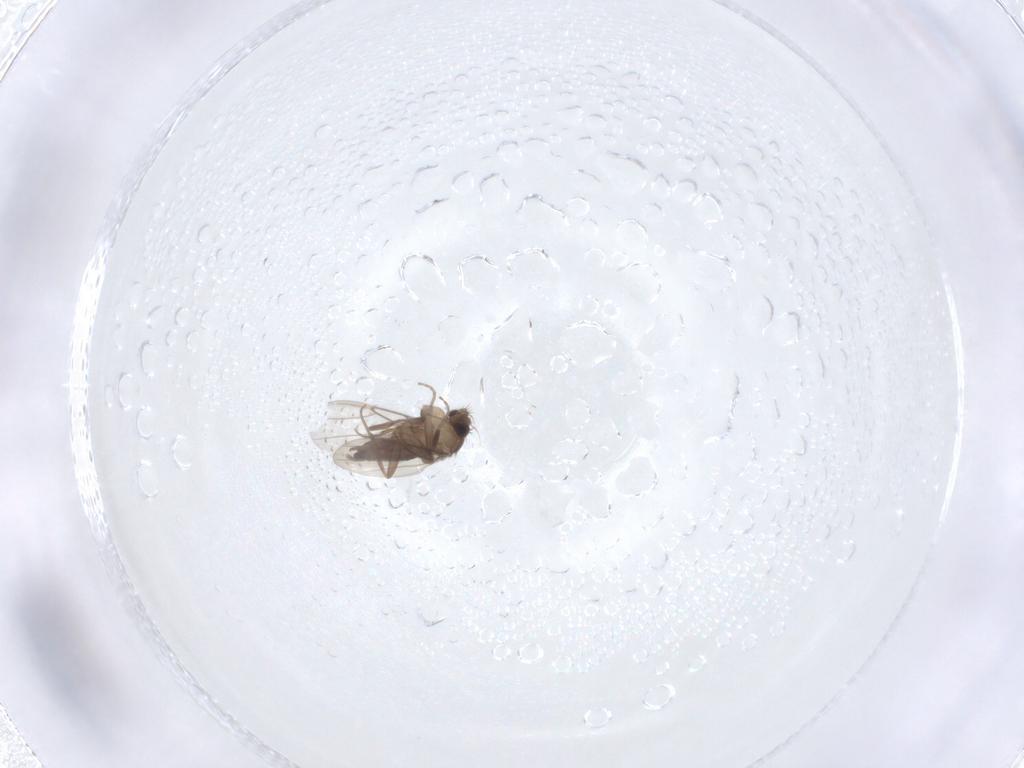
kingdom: Animalia
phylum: Arthropoda
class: Insecta
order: Diptera
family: Phoridae
